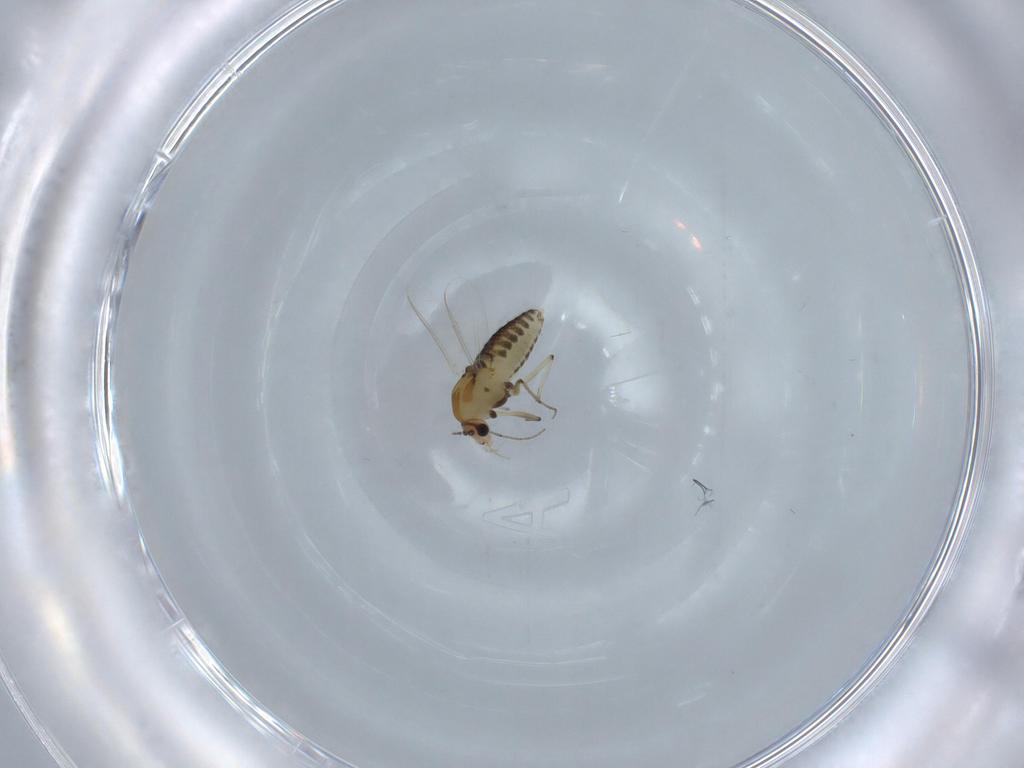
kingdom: Animalia
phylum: Arthropoda
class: Insecta
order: Diptera
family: Chironomidae
